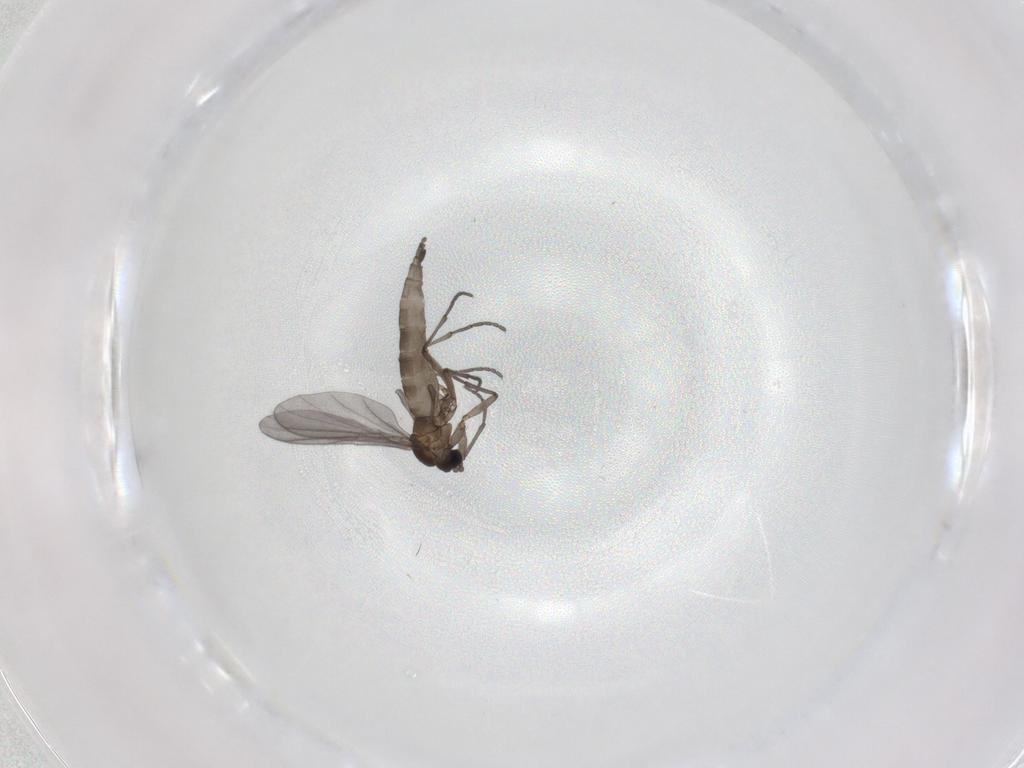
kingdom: Animalia
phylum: Arthropoda
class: Insecta
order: Diptera
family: Sciaridae
